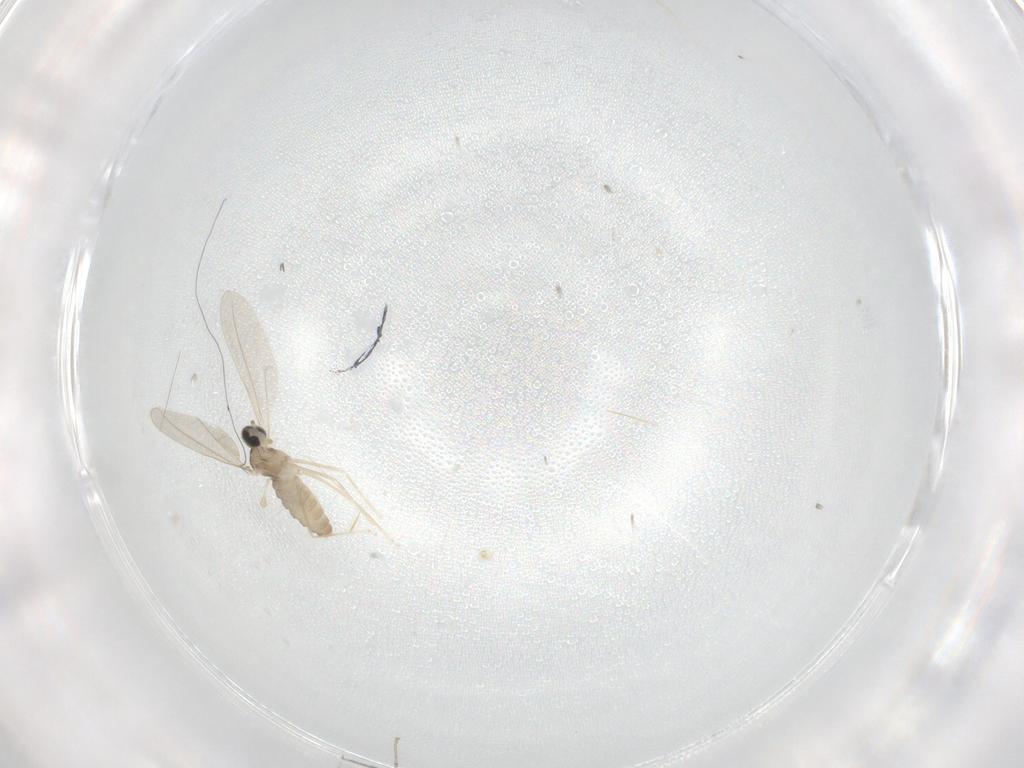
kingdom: Animalia
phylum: Arthropoda
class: Insecta
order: Diptera
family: Cecidomyiidae
